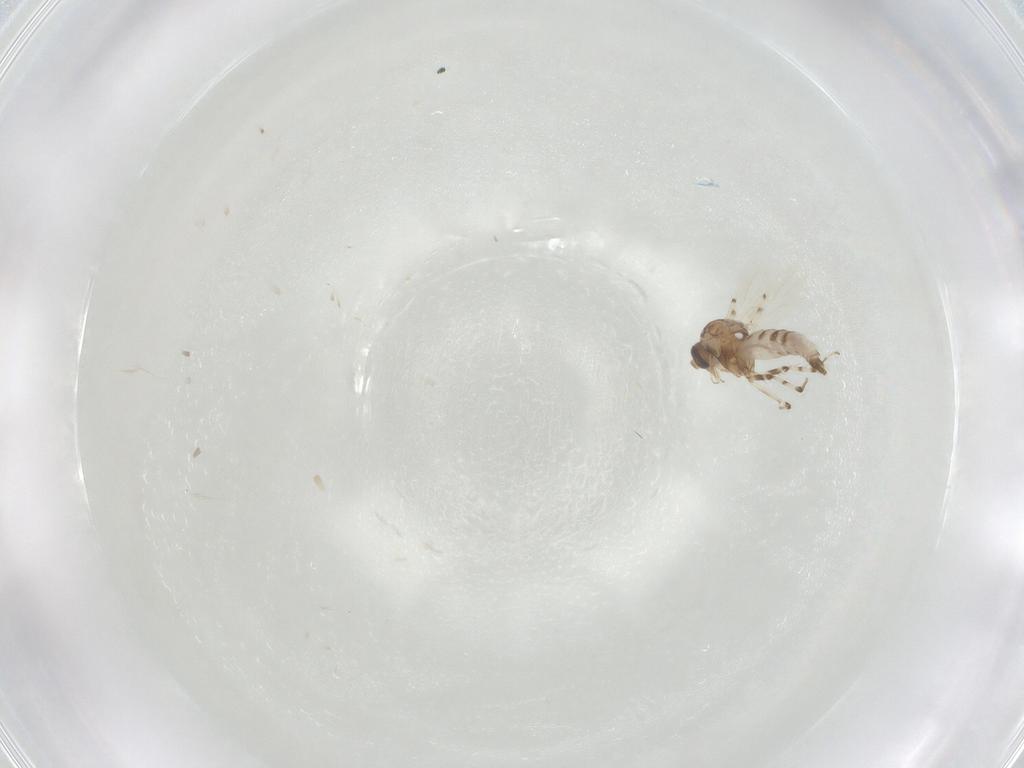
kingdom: Animalia
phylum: Arthropoda
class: Insecta
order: Diptera
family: Ceratopogonidae
